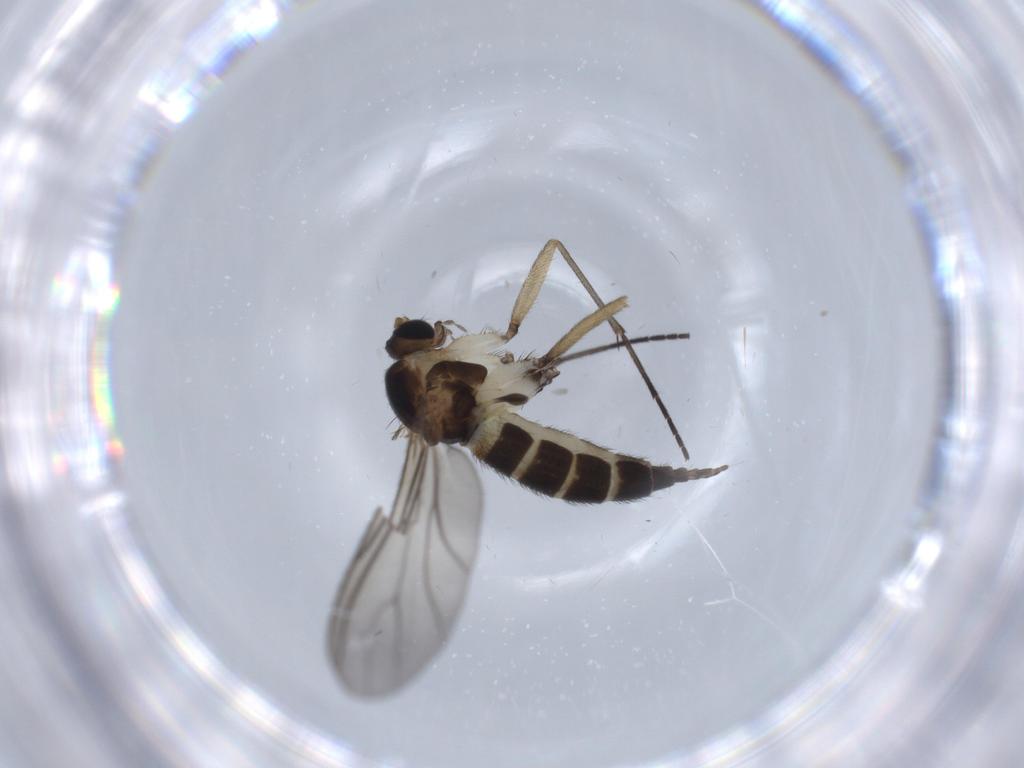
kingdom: Animalia
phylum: Arthropoda
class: Insecta
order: Diptera
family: Sciaridae
